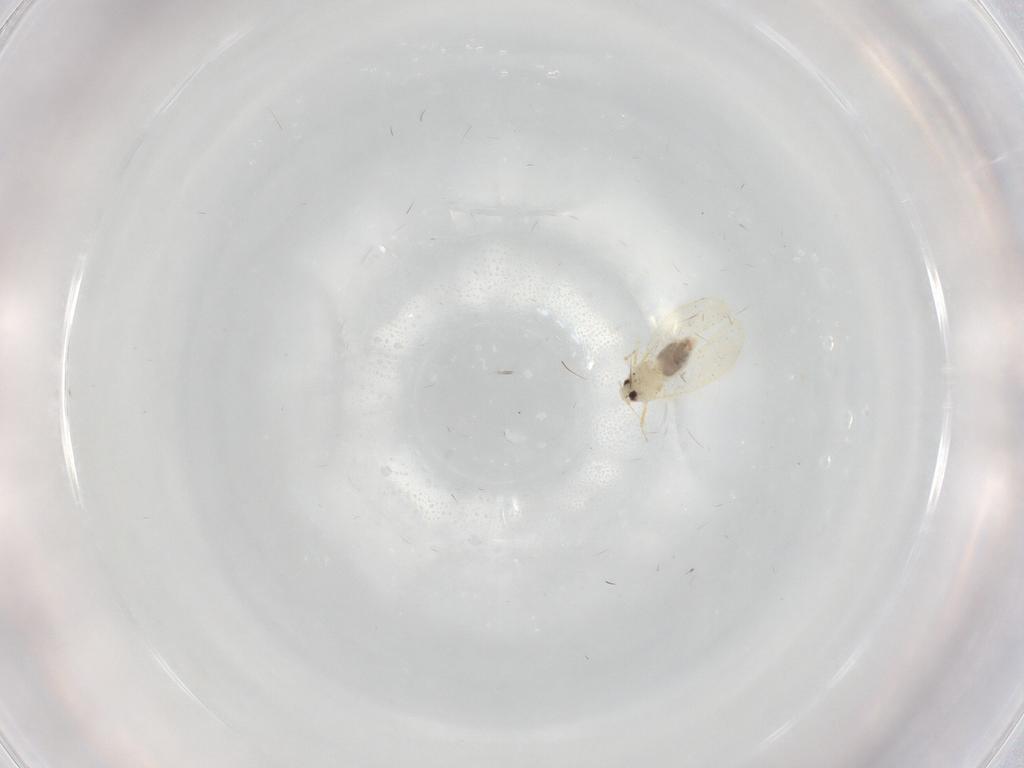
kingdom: Animalia
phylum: Arthropoda
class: Insecta
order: Hemiptera
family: Aleyrodidae
